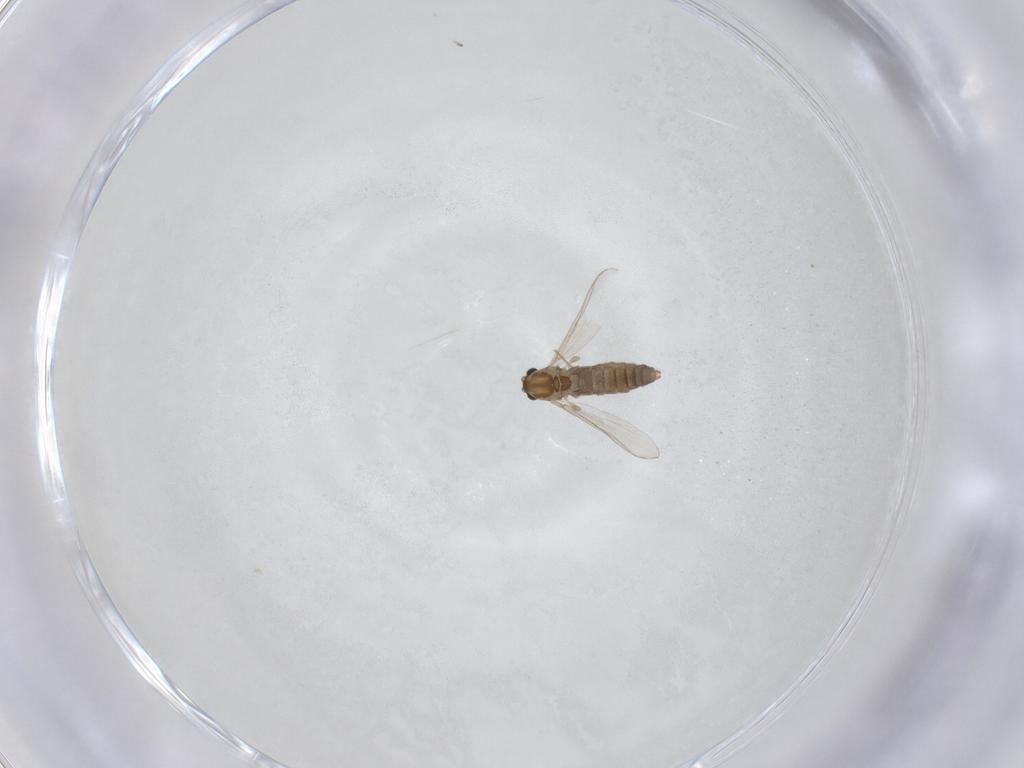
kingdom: Animalia
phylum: Arthropoda
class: Insecta
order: Diptera
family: Chironomidae
